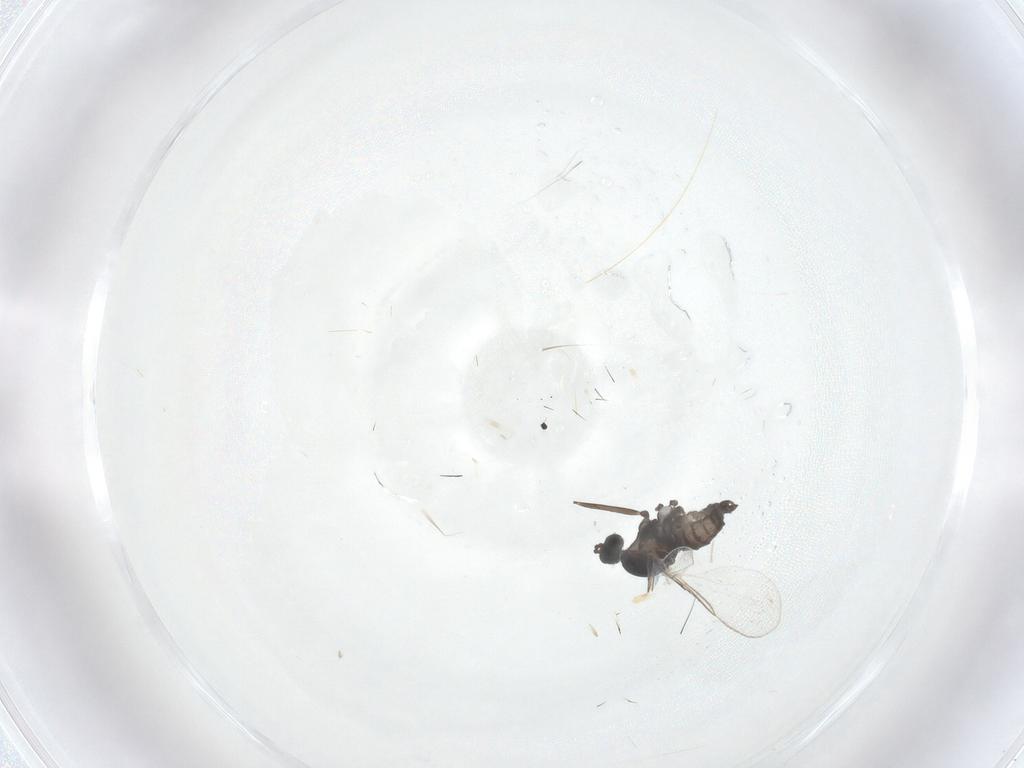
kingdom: Animalia
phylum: Arthropoda
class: Insecta
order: Diptera
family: Cecidomyiidae
